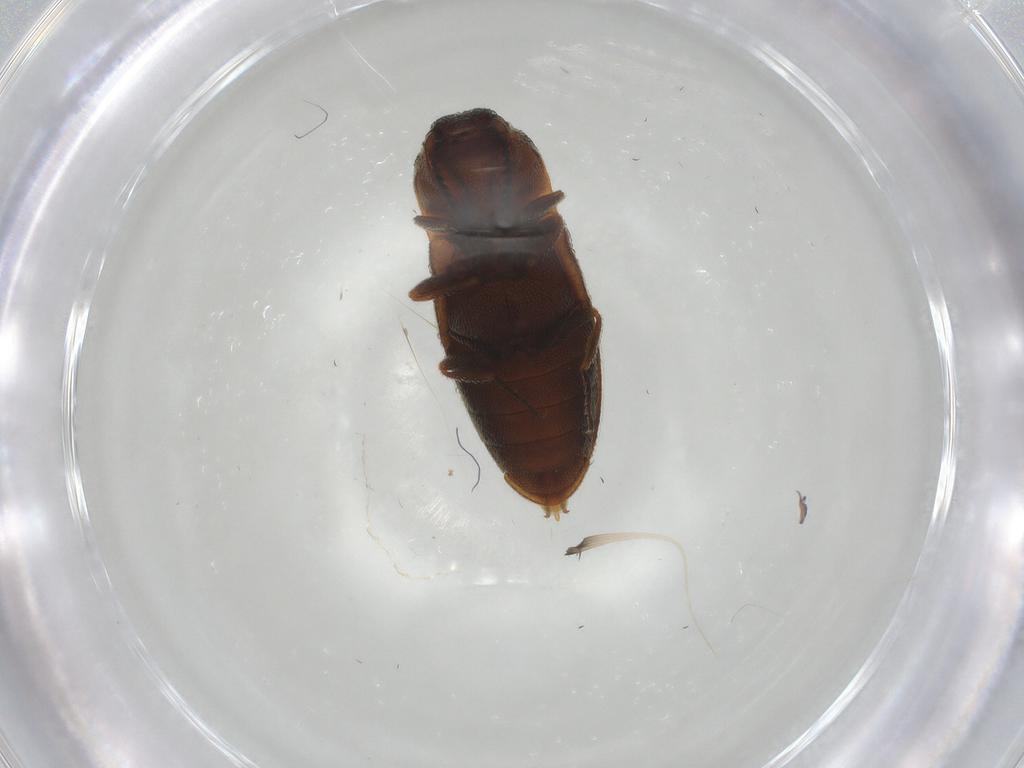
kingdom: Animalia
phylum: Arthropoda
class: Insecta
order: Coleoptera
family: Elateridae
